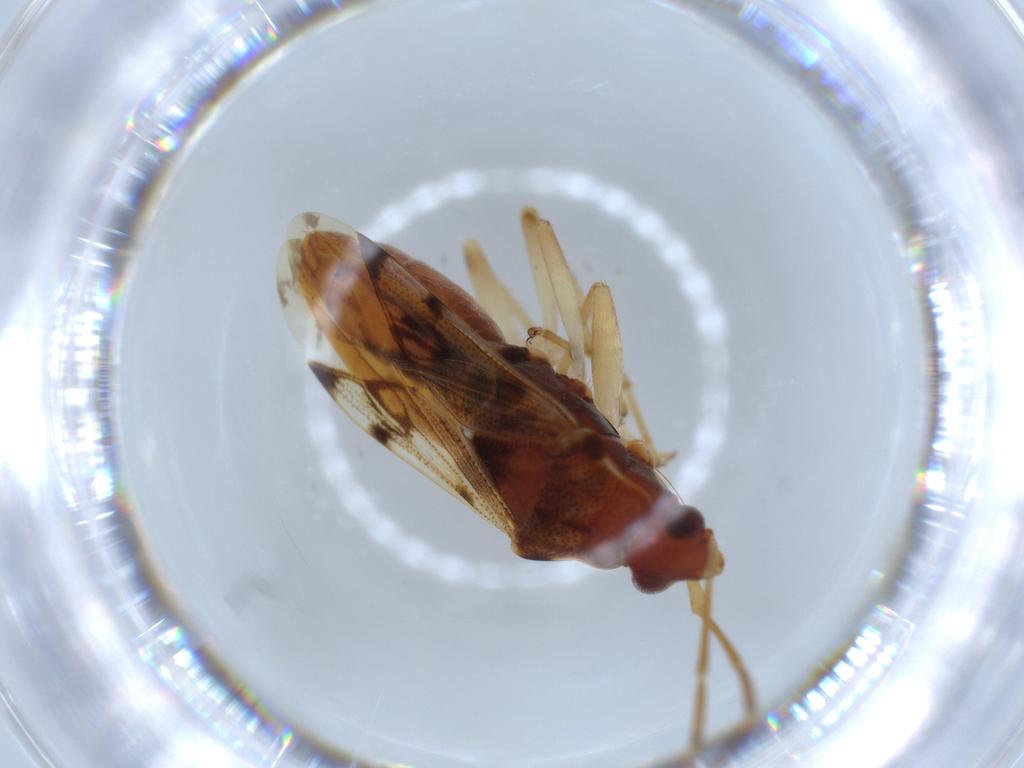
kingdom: Animalia
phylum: Arthropoda
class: Insecta
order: Hemiptera
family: Rhyparochromidae
